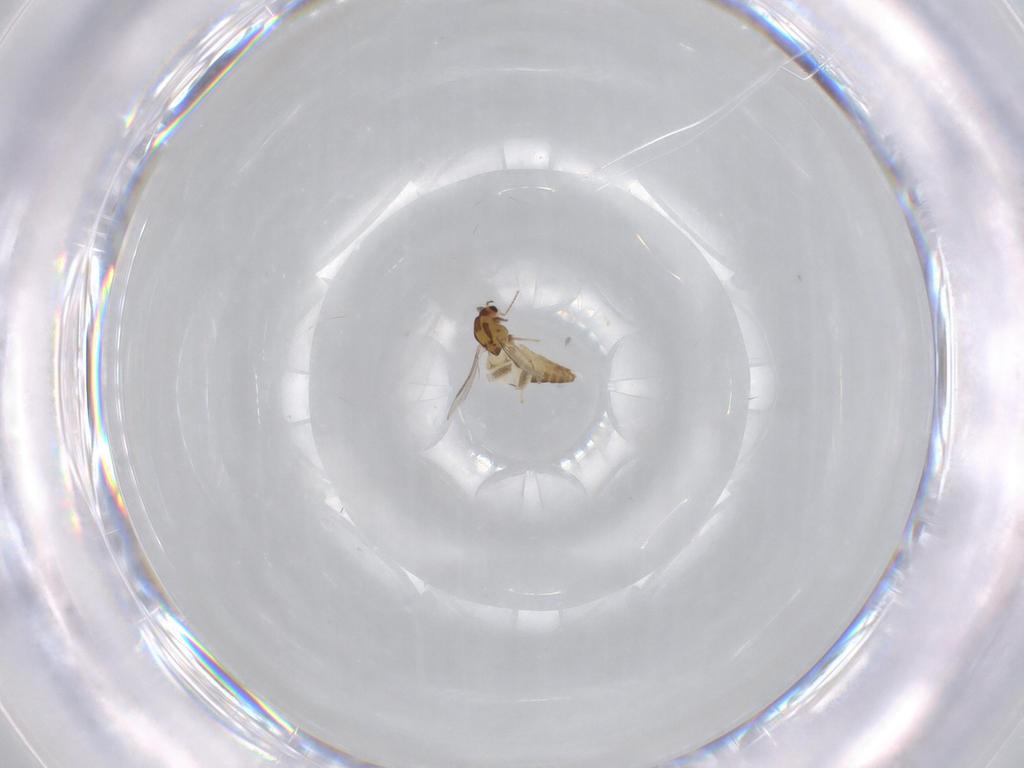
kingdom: Animalia
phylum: Arthropoda
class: Insecta
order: Diptera
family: Chironomidae
